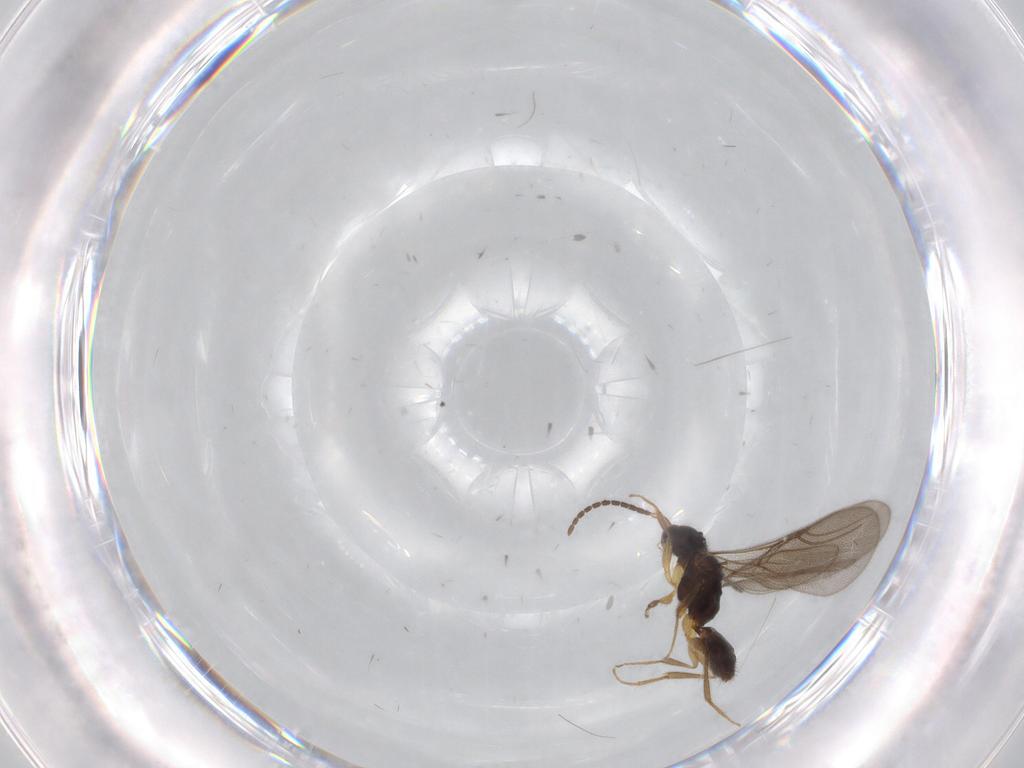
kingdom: Animalia
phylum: Arthropoda
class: Insecta
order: Hymenoptera
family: Bethylidae
